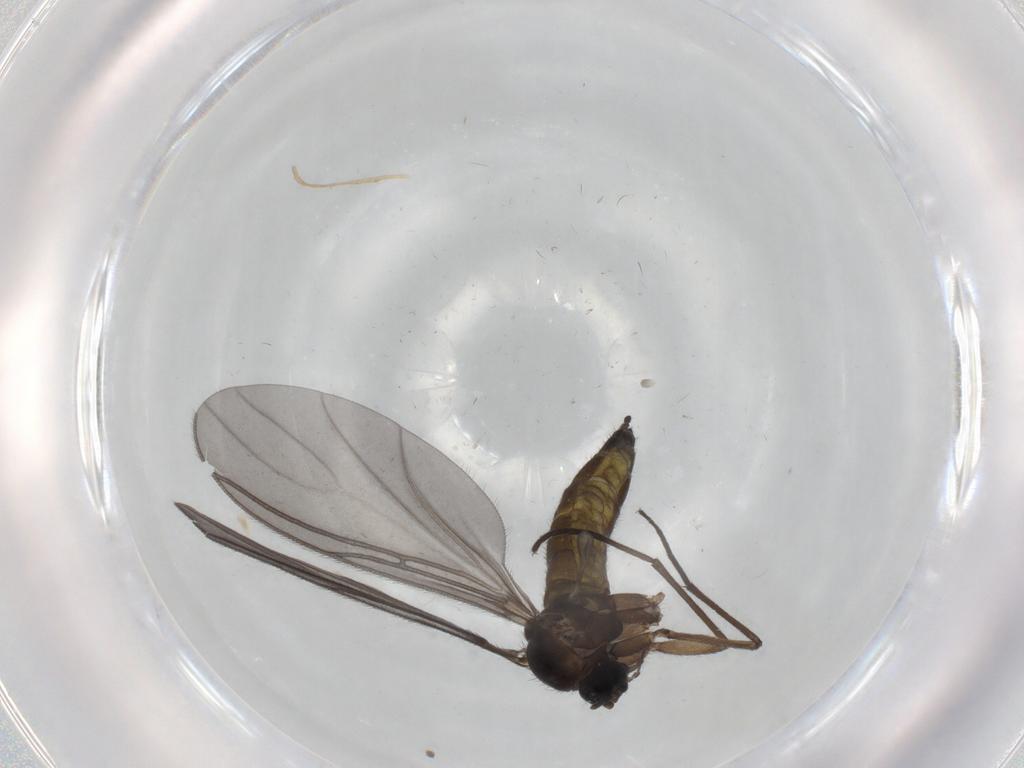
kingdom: Animalia
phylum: Arthropoda
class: Insecta
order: Diptera
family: Sciaridae
